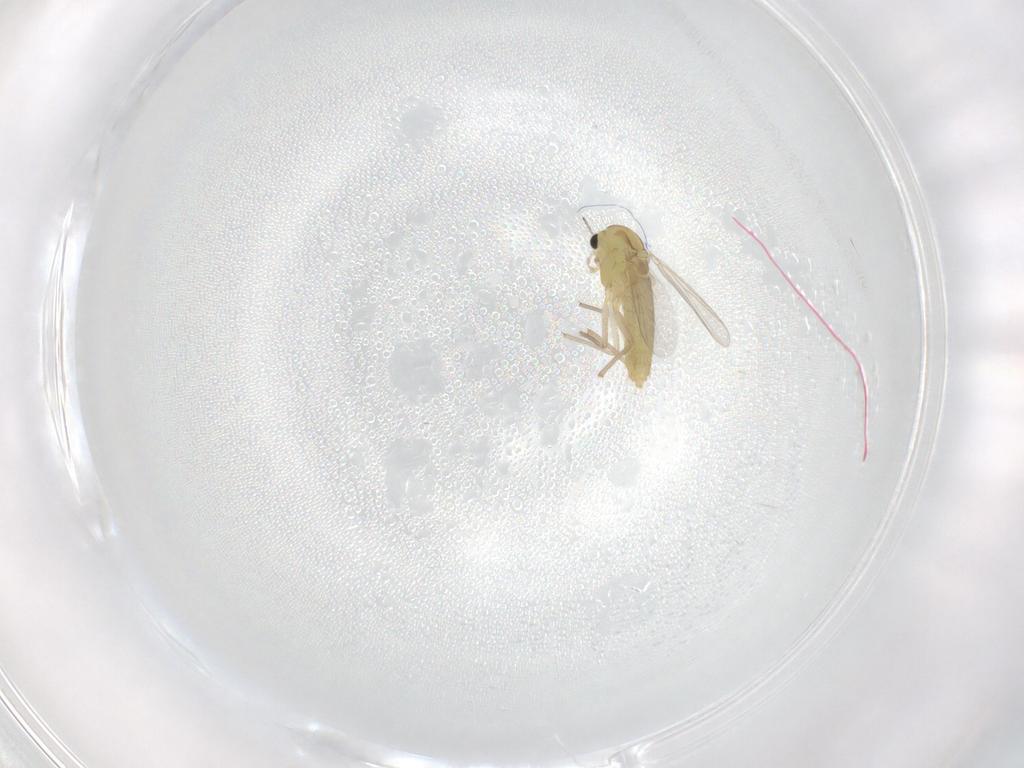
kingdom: Animalia
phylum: Arthropoda
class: Insecta
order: Diptera
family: Chironomidae
